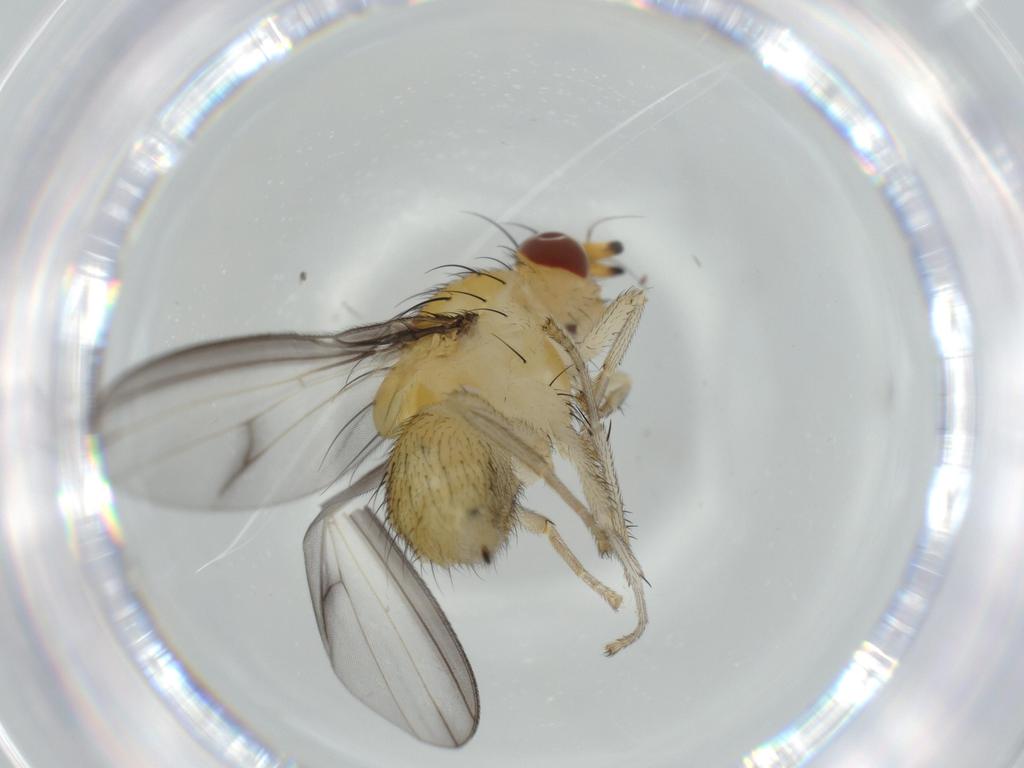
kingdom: Animalia
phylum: Arthropoda
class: Insecta
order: Diptera
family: Lauxaniidae
